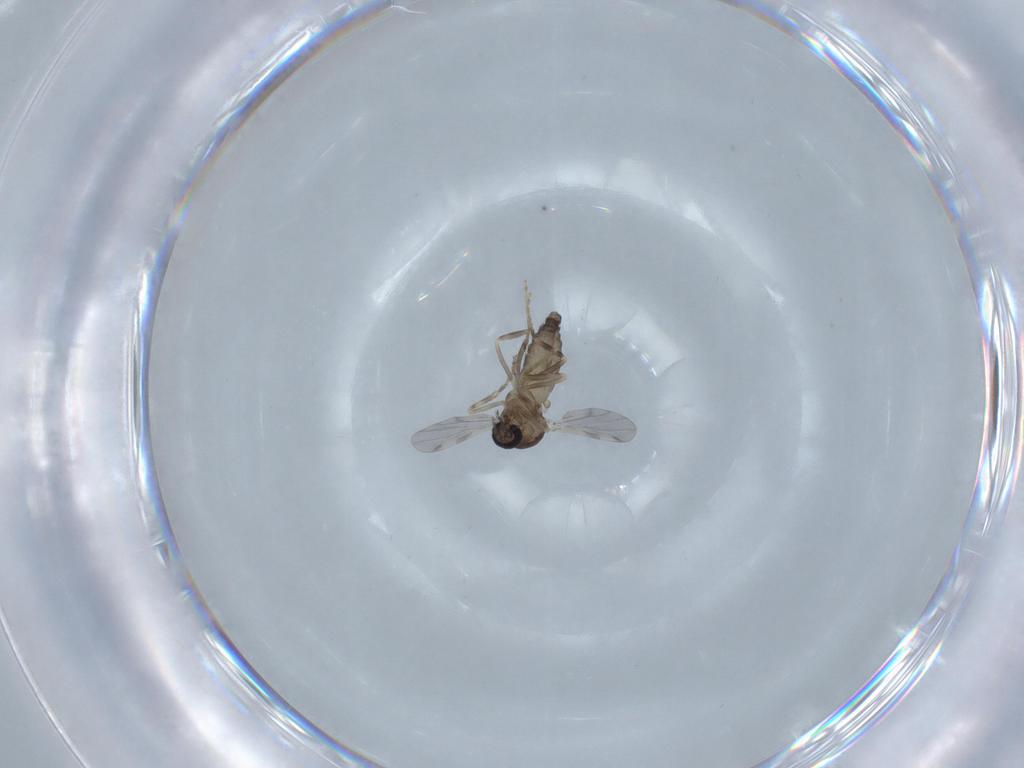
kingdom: Animalia
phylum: Arthropoda
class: Insecta
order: Diptera
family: Ceratopogonidae
